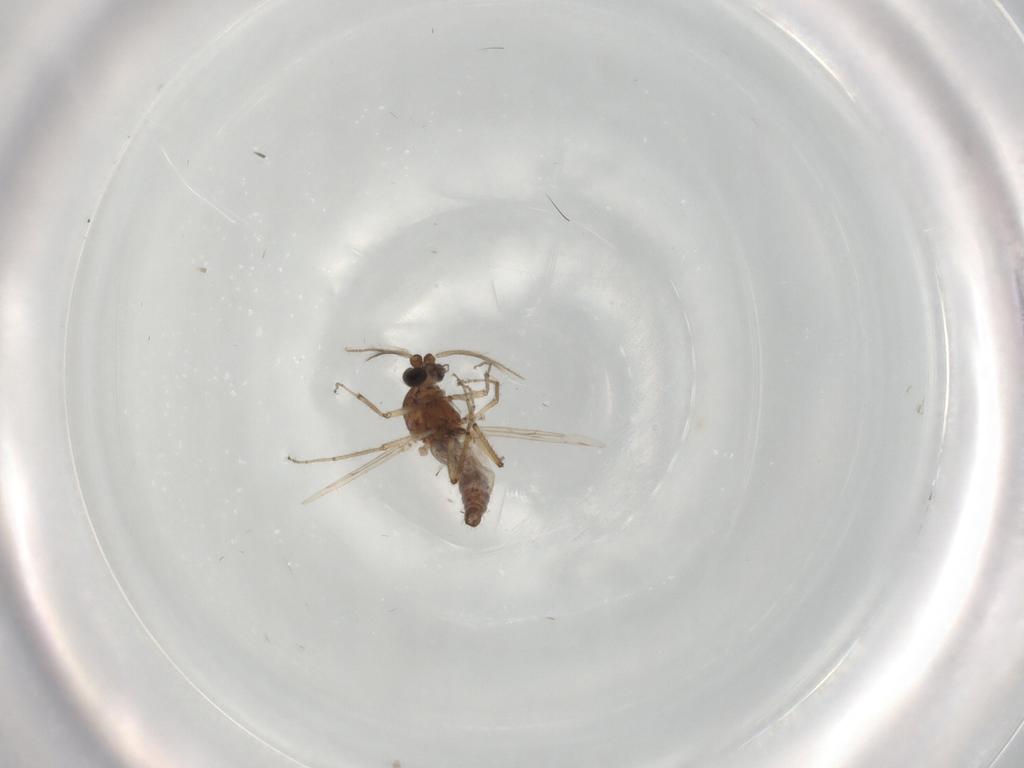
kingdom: Animalia
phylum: Arthropoda
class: Insecta
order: Diptera
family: Ceratopogonidae
